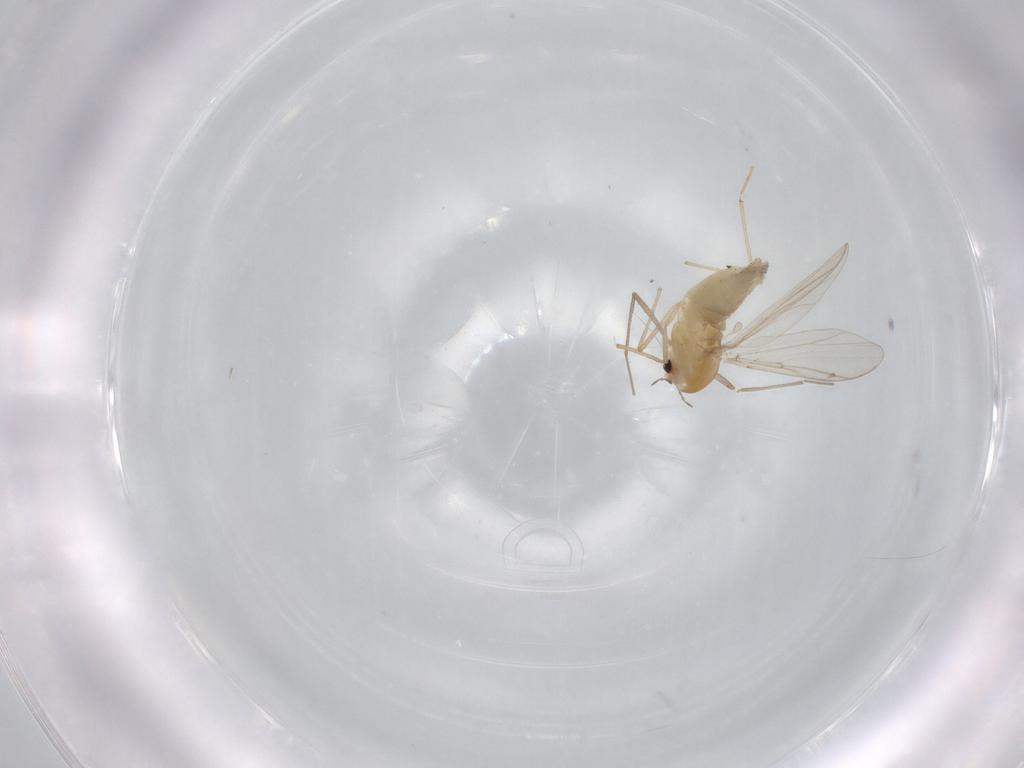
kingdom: Animalia
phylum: Arthropoda
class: Insecta
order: Diptera
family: Chironomidae
